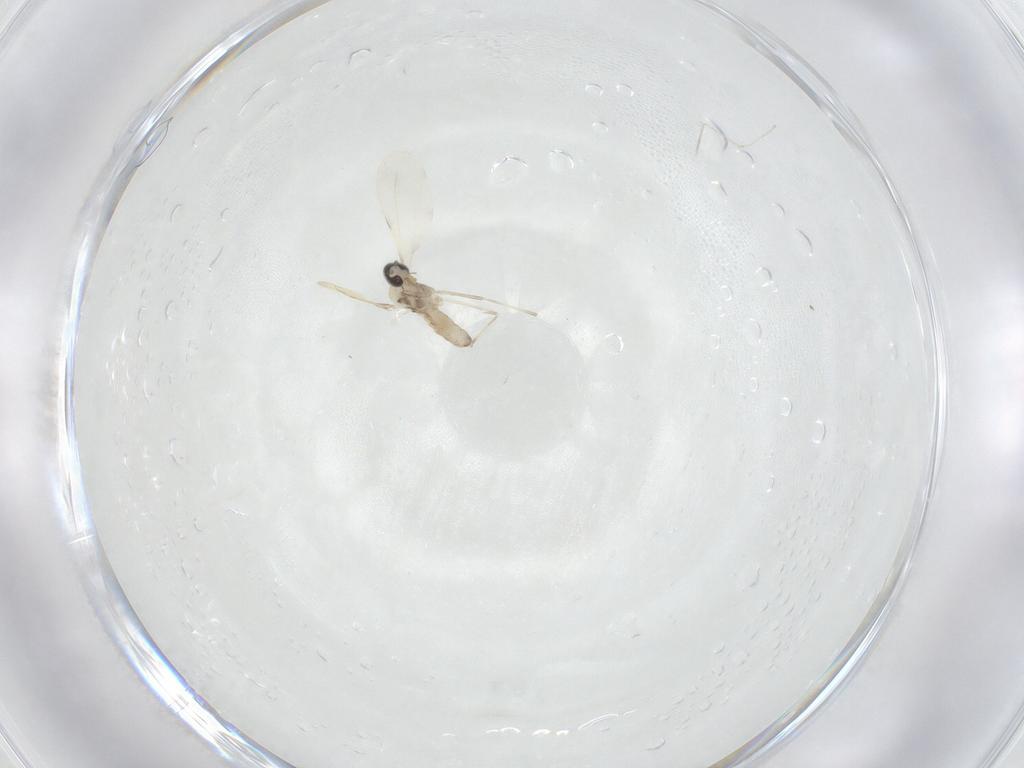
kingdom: Animalia
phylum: Arthropoda
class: Insecta
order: Diptera
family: Cecidomyiidae
